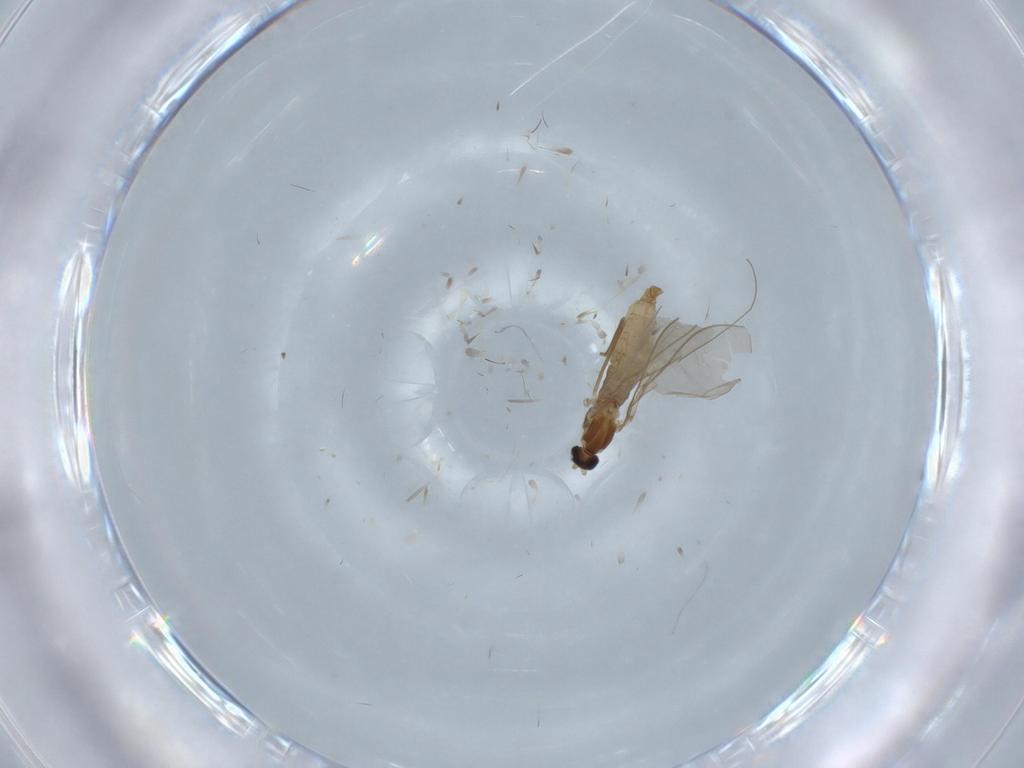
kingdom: Animalia
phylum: Arthropoda
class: Insecta
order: Diptera
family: Cecidomyiidae
